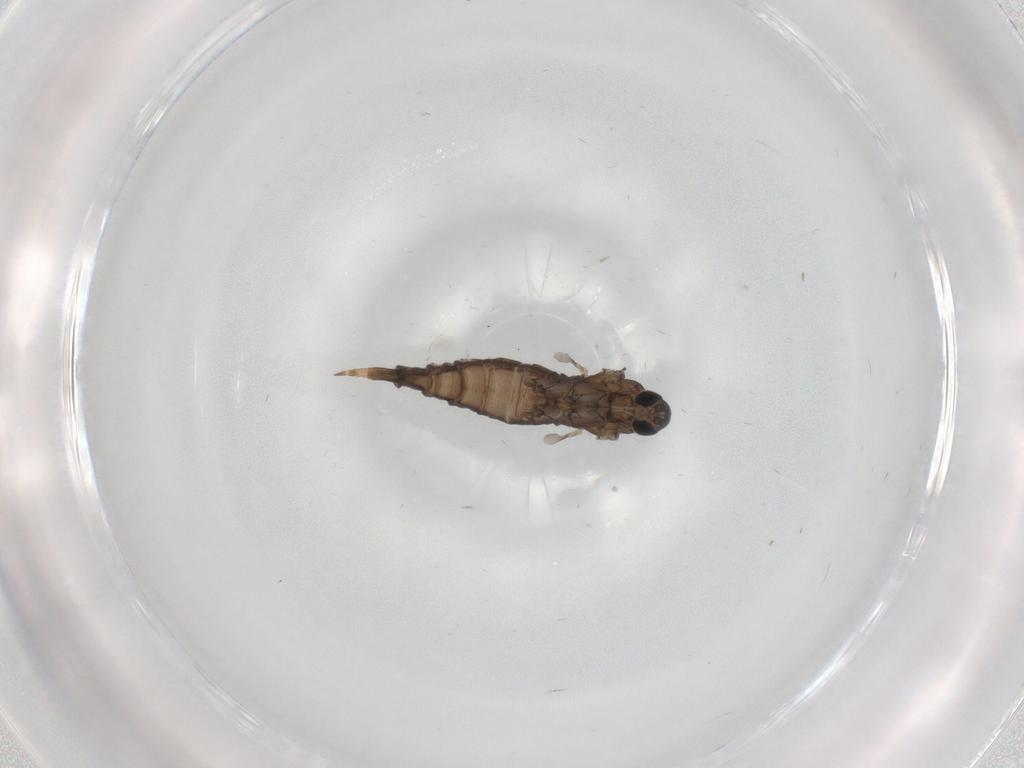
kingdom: Animalia
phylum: Arthropoda
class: Insecta
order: Diptera
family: Cecidomyiidae
